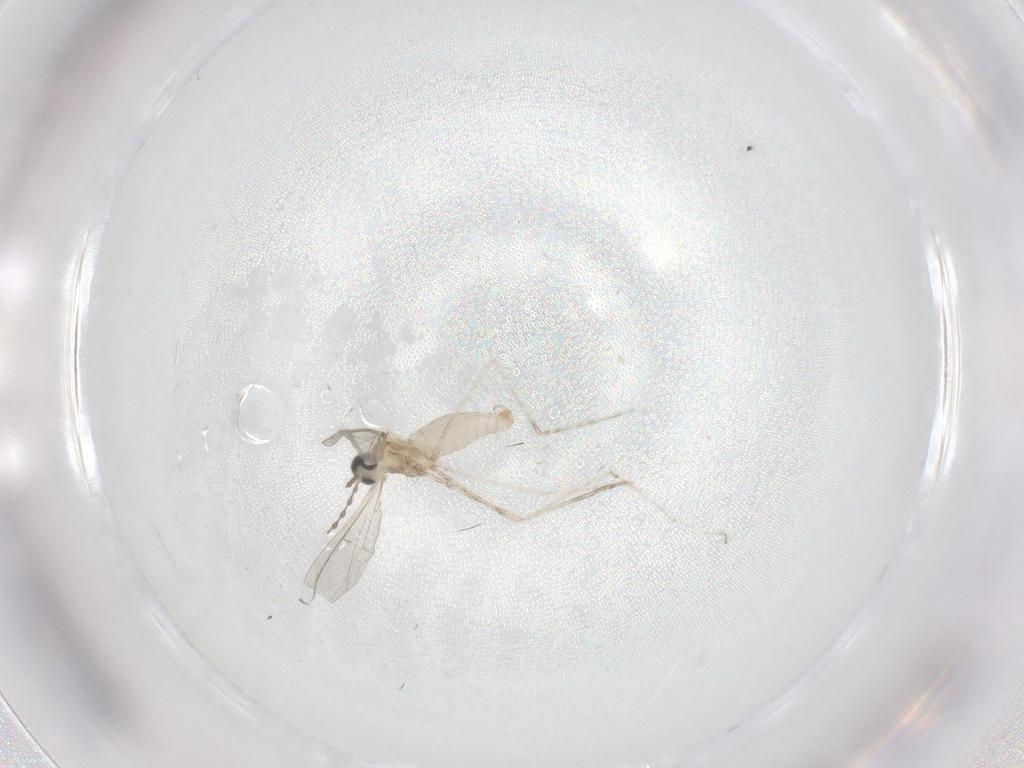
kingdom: Animalia
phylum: Arthropoda
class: Insecta
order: Diptera
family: Cecidomyiidae
